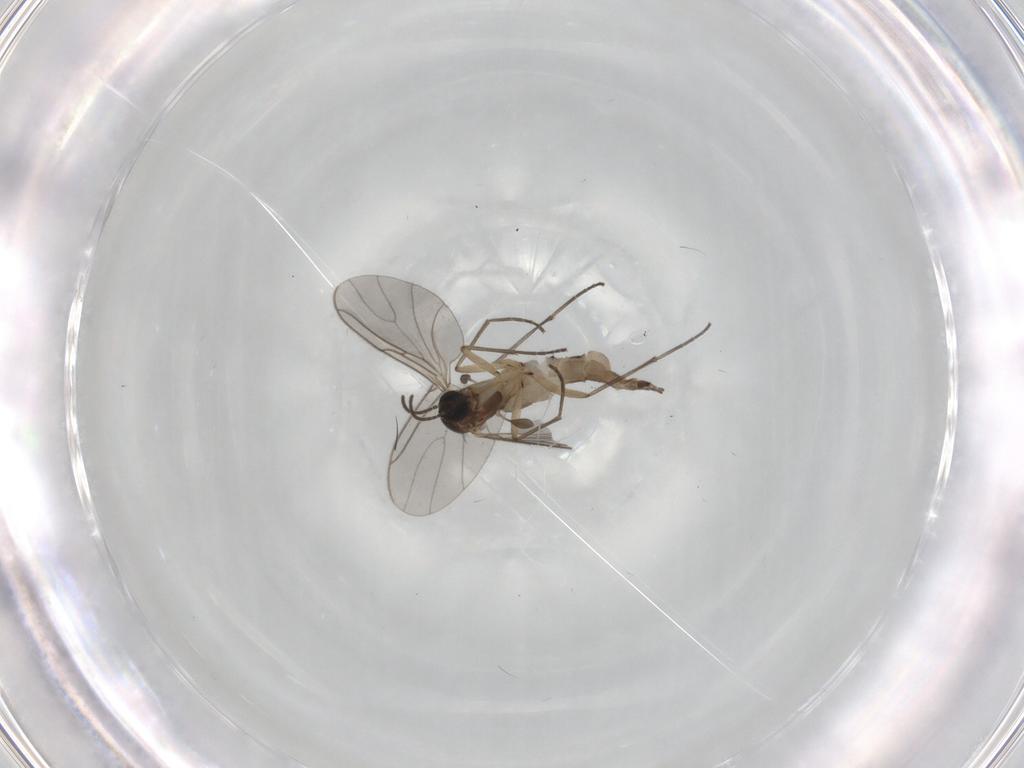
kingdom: Animalia
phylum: Arthropoda
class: Insecta
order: Diptera
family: Sciaridae
